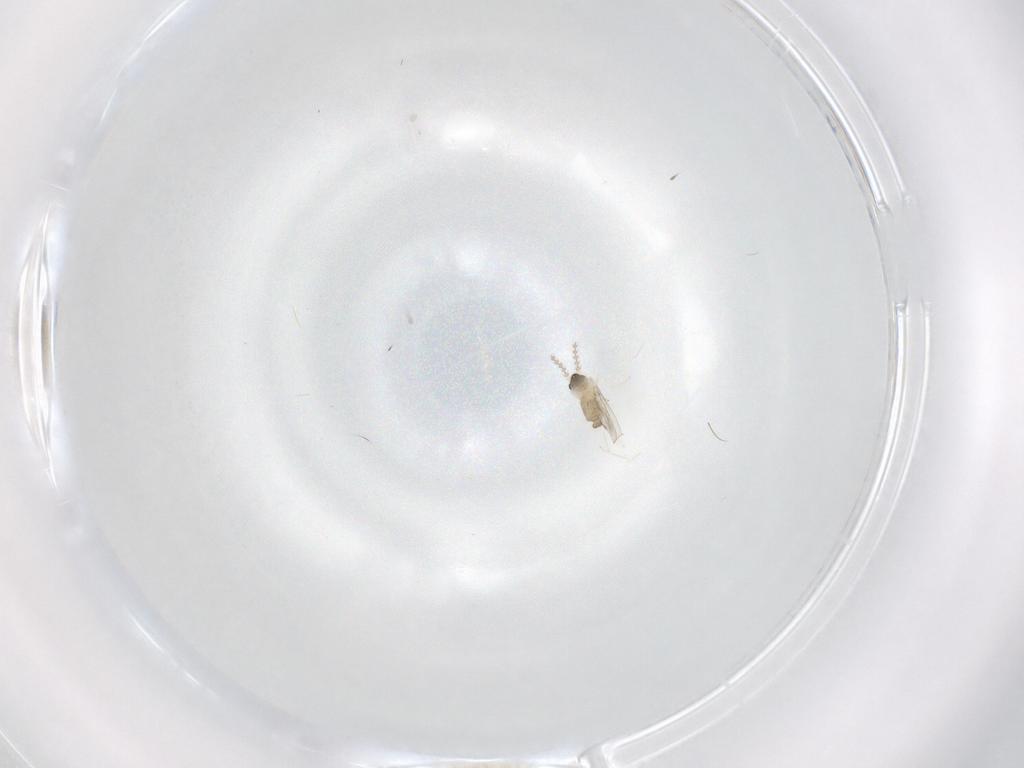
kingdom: Animalia
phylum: Arthropoda
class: Insecta
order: Diptera
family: Cecidomyiidae
